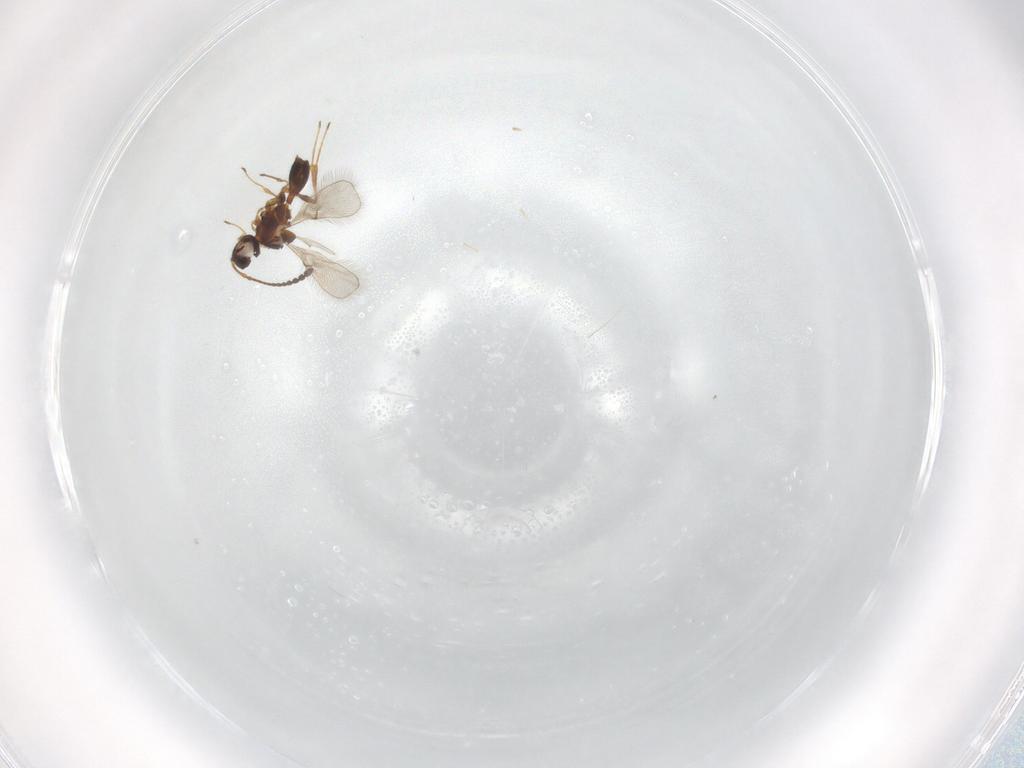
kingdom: Animalia
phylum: Arthropoda
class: Insecta
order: Hymenoptera
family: Diapriidae
